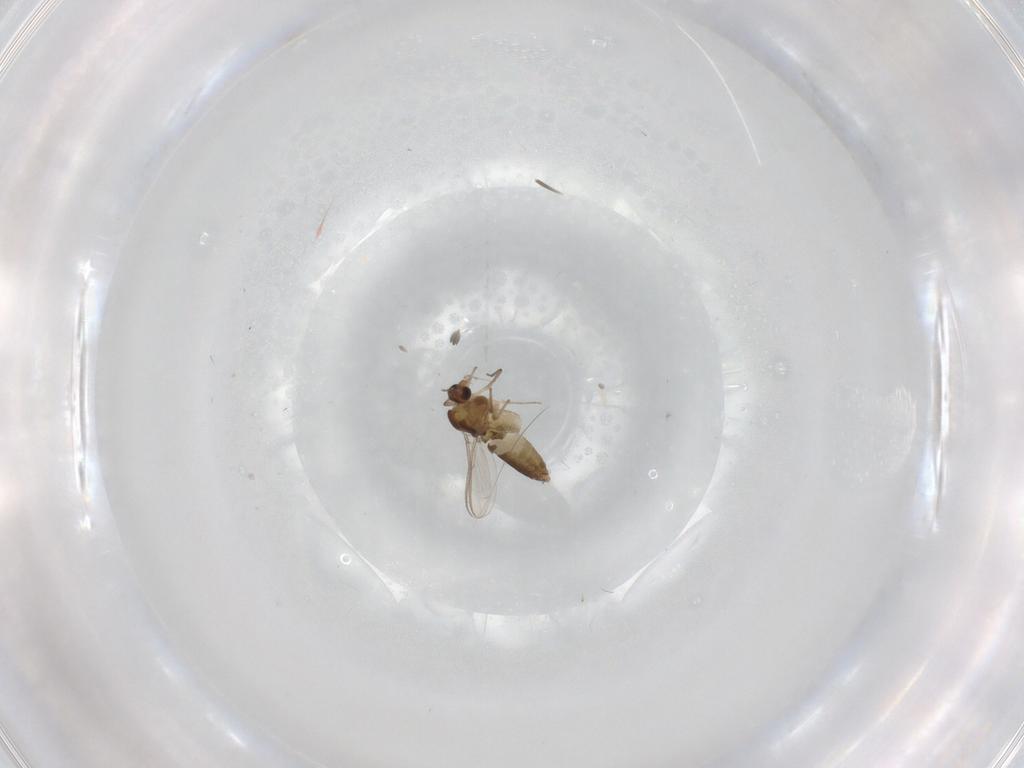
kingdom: Animalia
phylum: Arthropoda
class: Insecta
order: Diptera
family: Chironomidae
